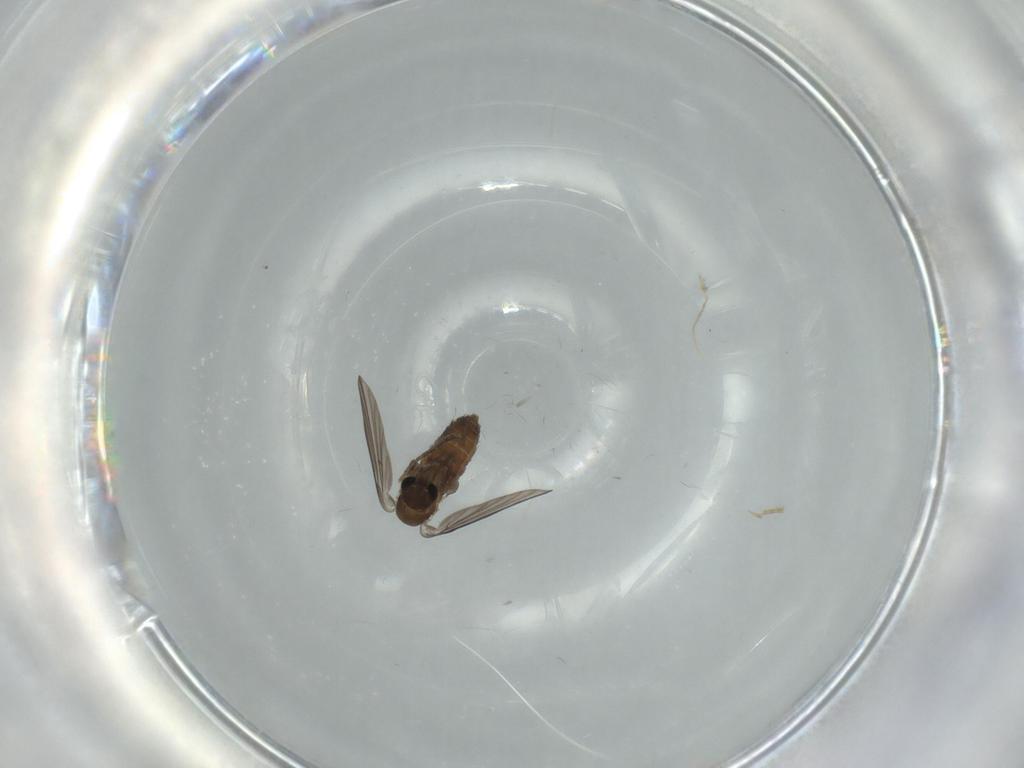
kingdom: Animalia
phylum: Arthropoda
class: Insecta
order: Diptera
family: Psychodidae
